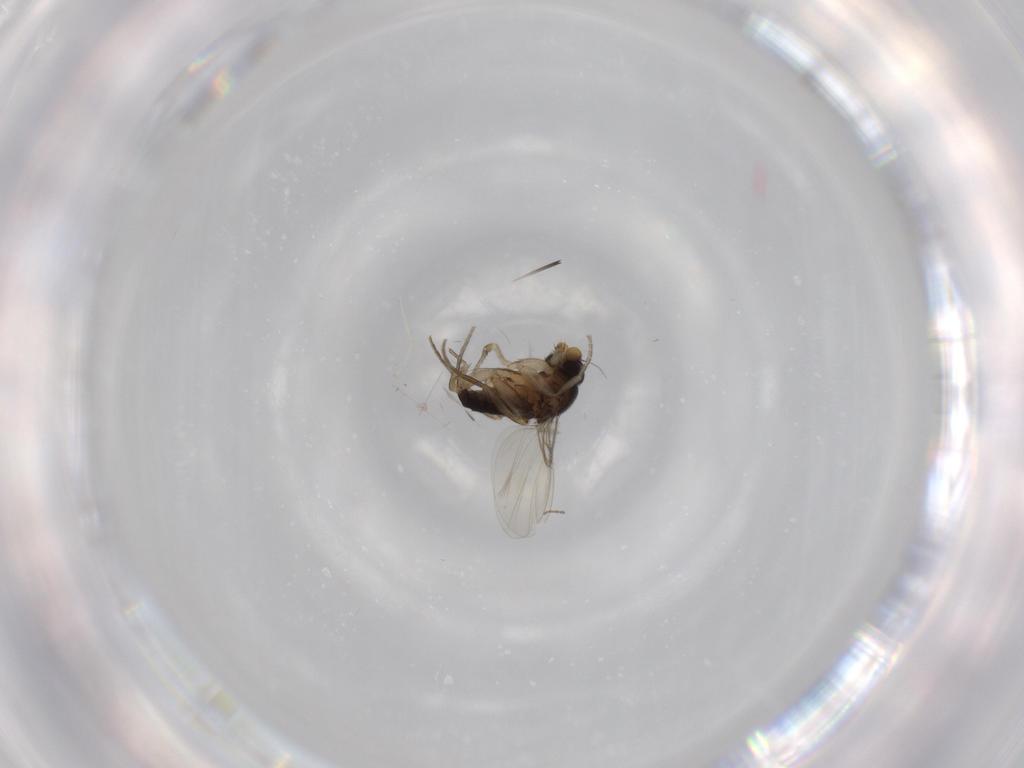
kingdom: Animalia
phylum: Arthropoda
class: Insecta
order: Diptera
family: Phoridae
